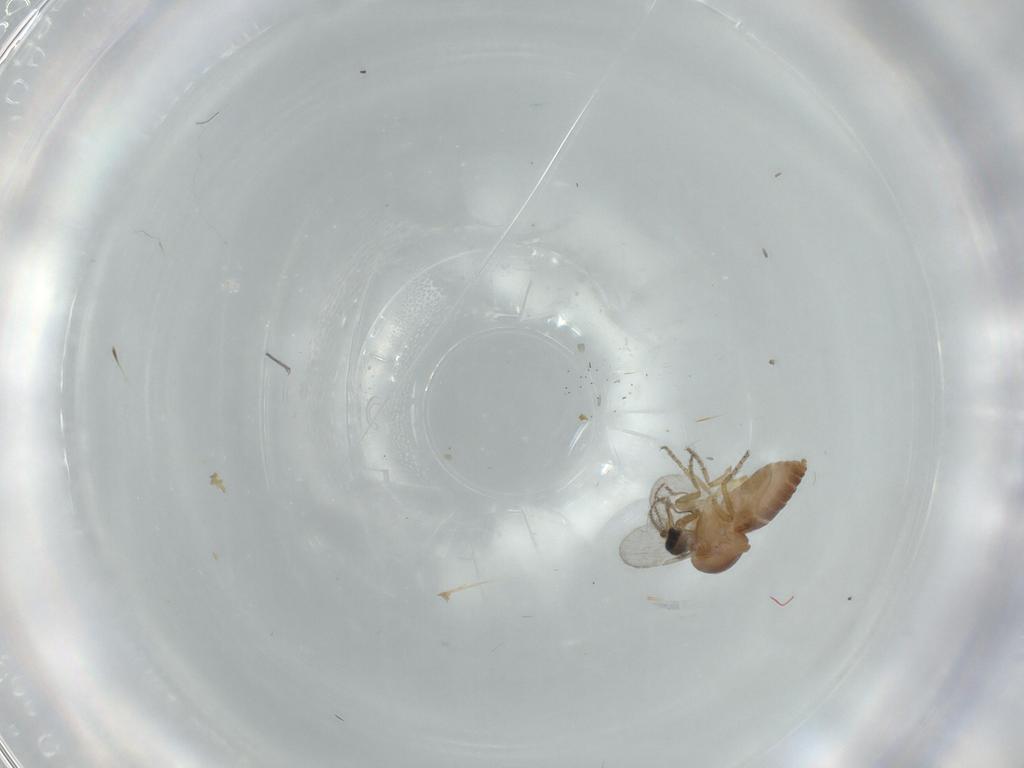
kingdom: Animalia
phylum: Arthropoda
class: Insecta
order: Diptera
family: Ceratopogonidae
